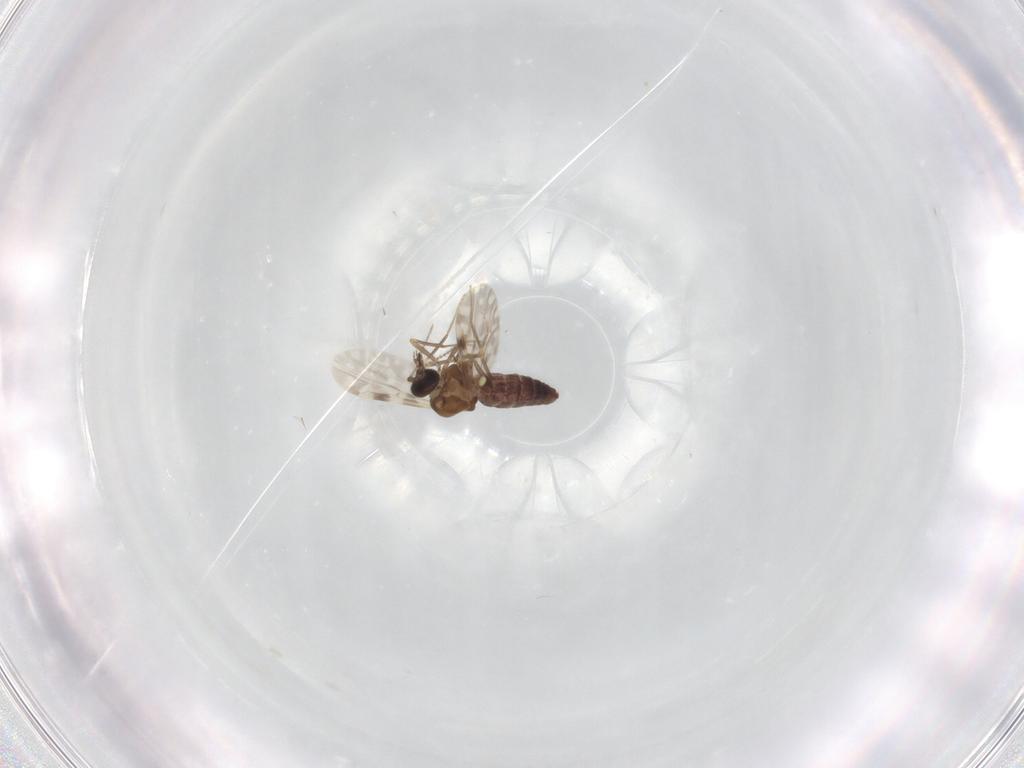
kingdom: Animalia
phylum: Arthropoda
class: Insecta
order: Diptera
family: Ceratopogonidae
